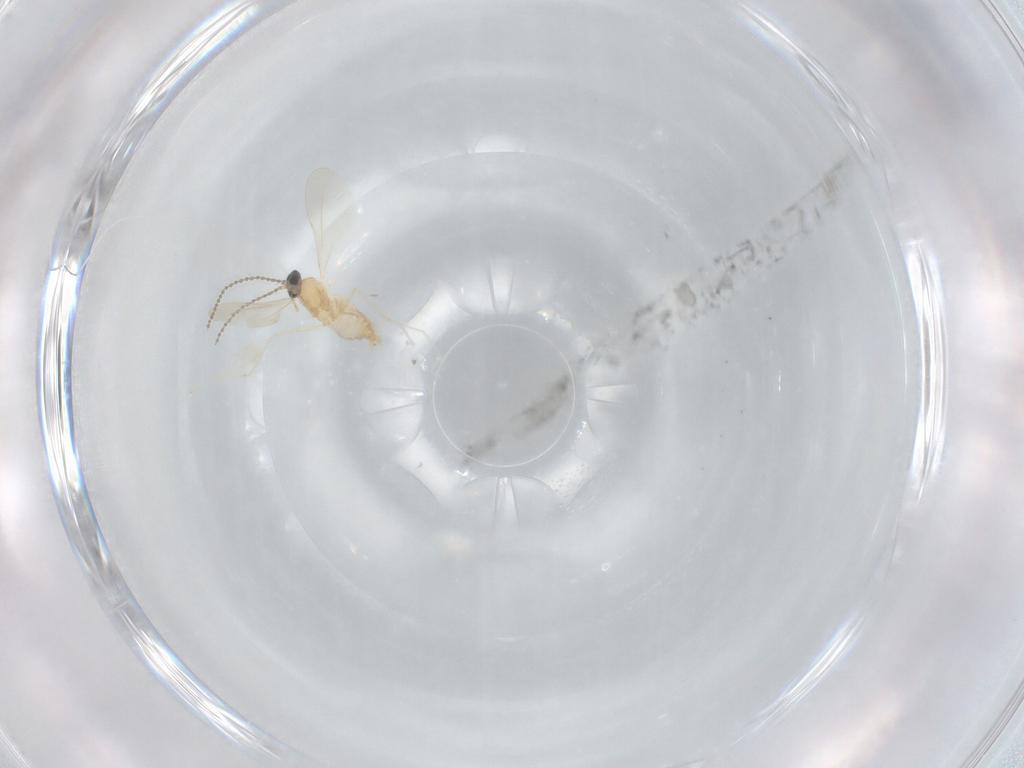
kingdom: Animalia
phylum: Arthropoda
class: Insecta
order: Diptera
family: Cecidomyiidae
